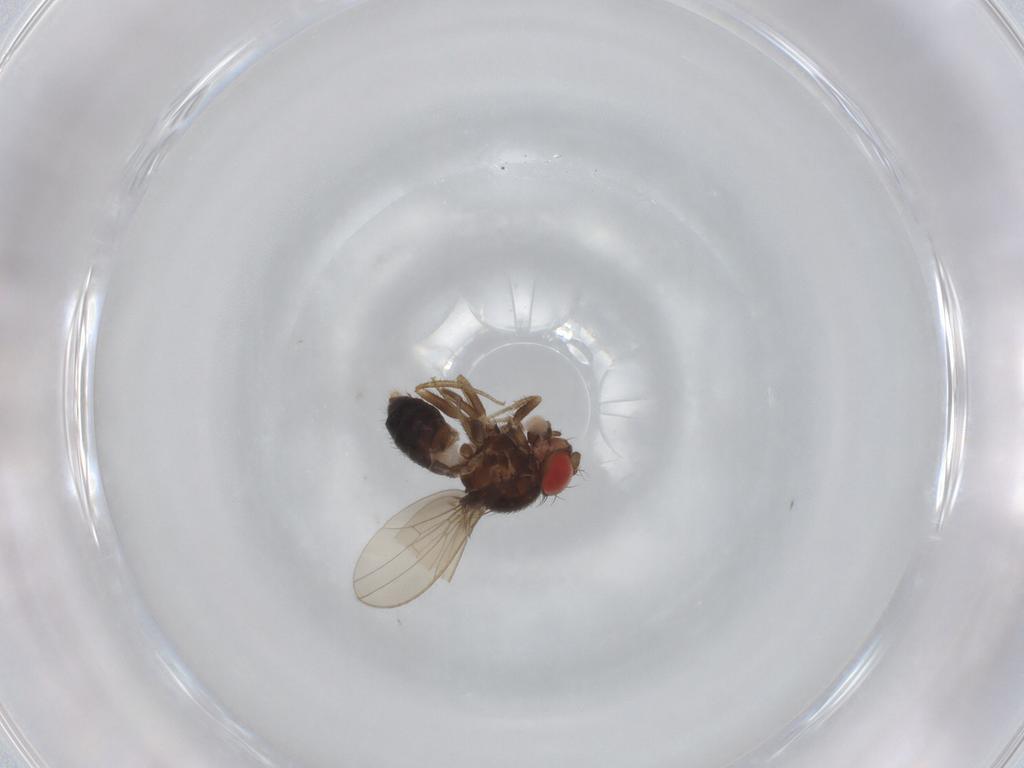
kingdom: Animalia
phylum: Arthropoda
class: Insecta
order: Diptera
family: Drosophilidae
